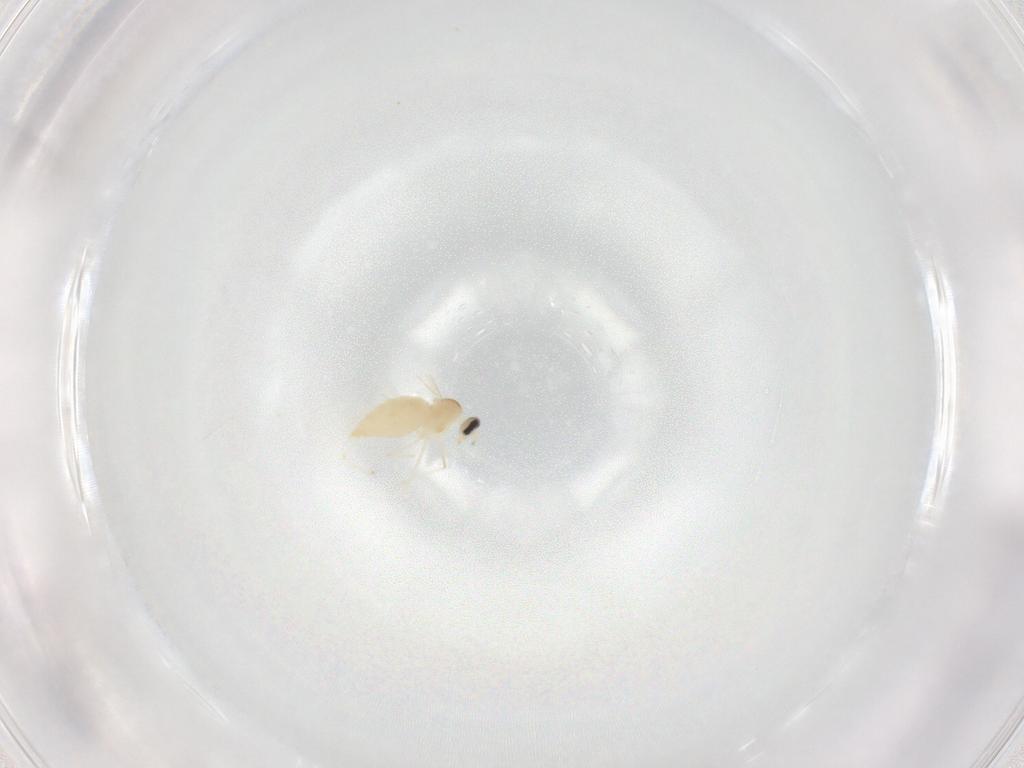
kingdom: Animalia
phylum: Arthropoda
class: Insecta
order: Diptera
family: Cecidomyiidae
